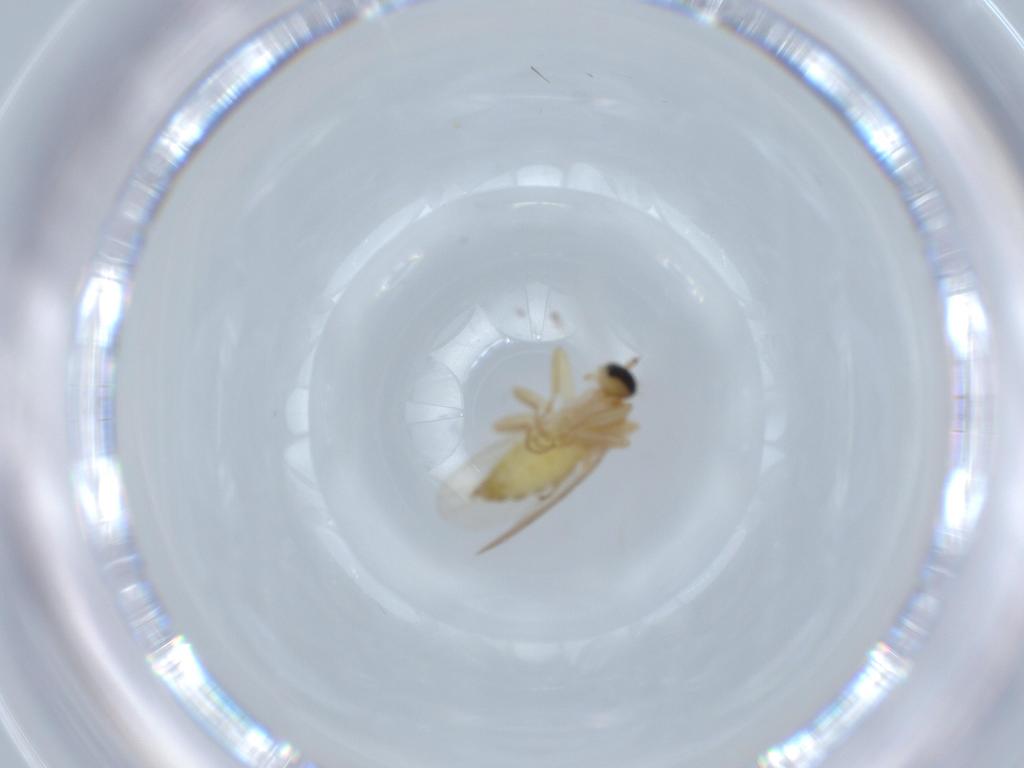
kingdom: Animalia
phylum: Arthropoda
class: Insecta
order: Diptera
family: Hybotidae
